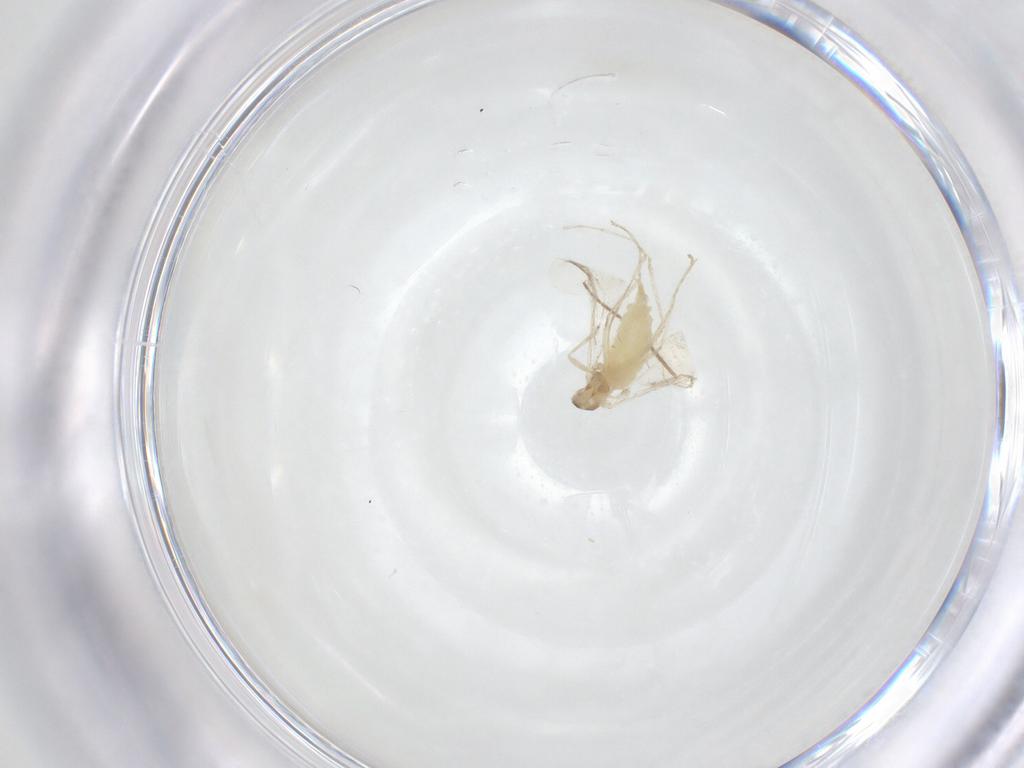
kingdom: Animalia
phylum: Arthropoda
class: Insecta
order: Diptera
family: Cecidomyiidae
